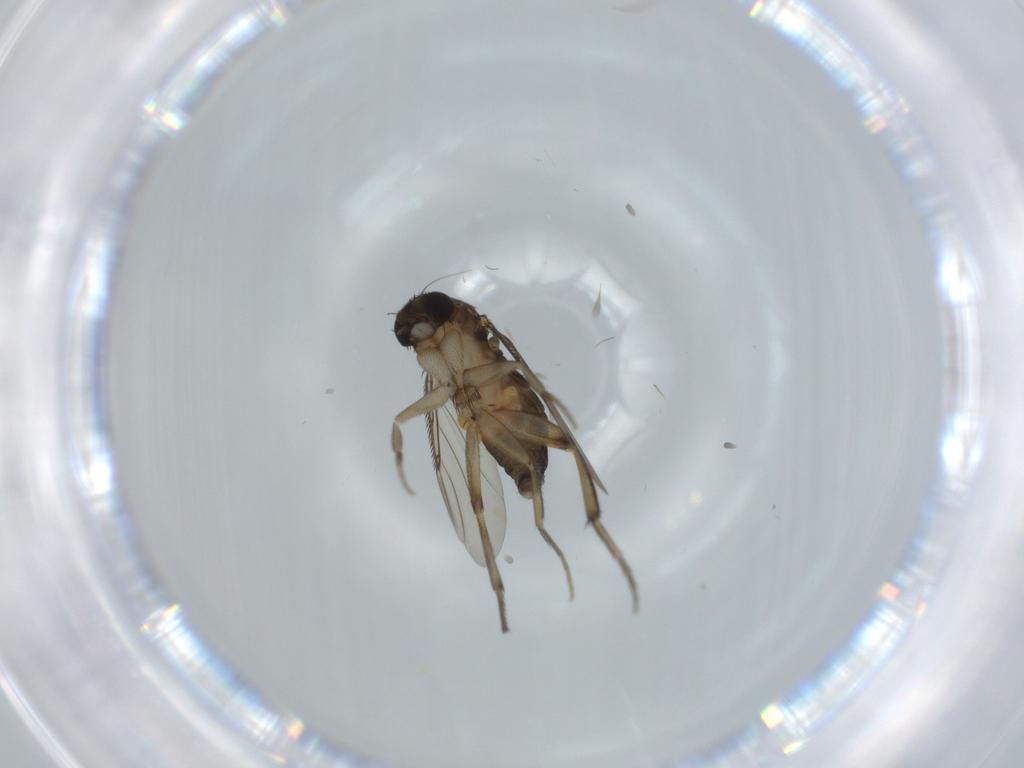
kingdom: Animalia
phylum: Arthropoda
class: Insecta
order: Diptera
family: Phoridae
